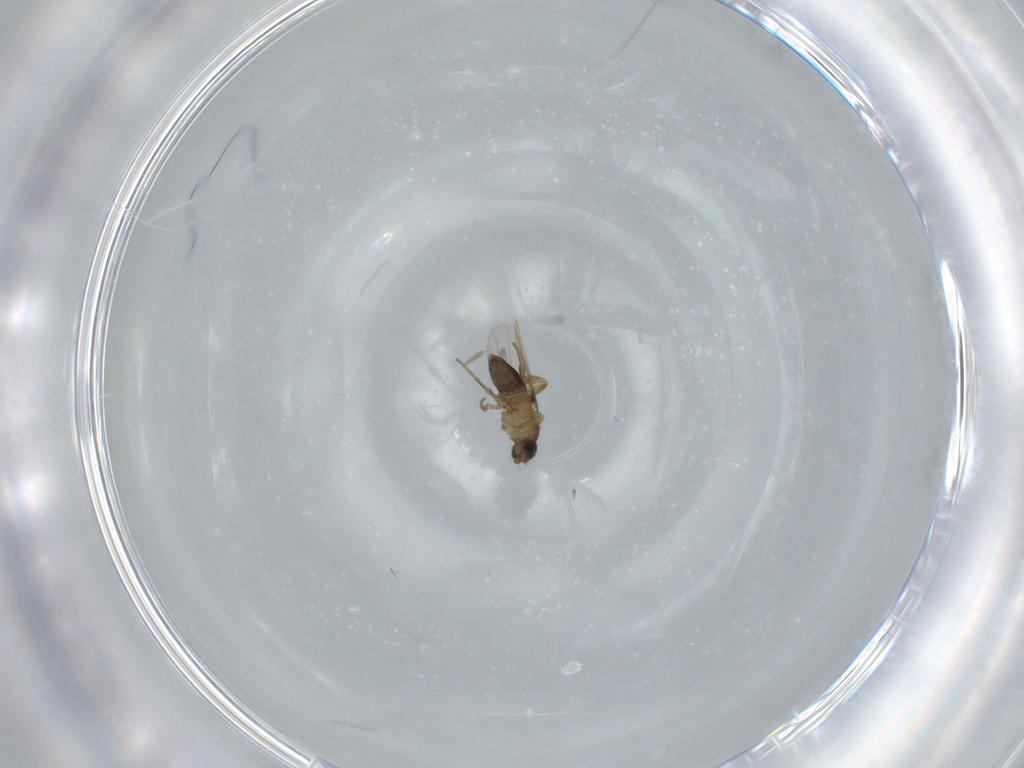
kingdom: Animalia
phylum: Arthropoda
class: Insecta
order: Diptera
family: Phoridae
